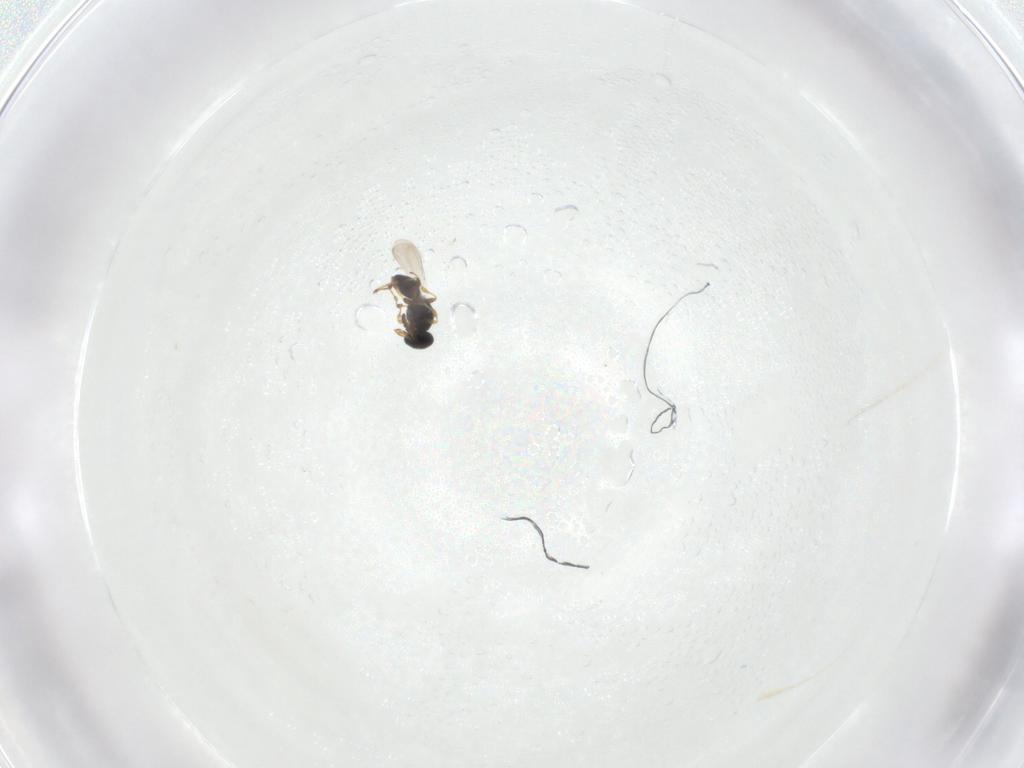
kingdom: Animalia
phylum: Arthropoda
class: Insecta
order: Hymenoptera
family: Platygastridae
